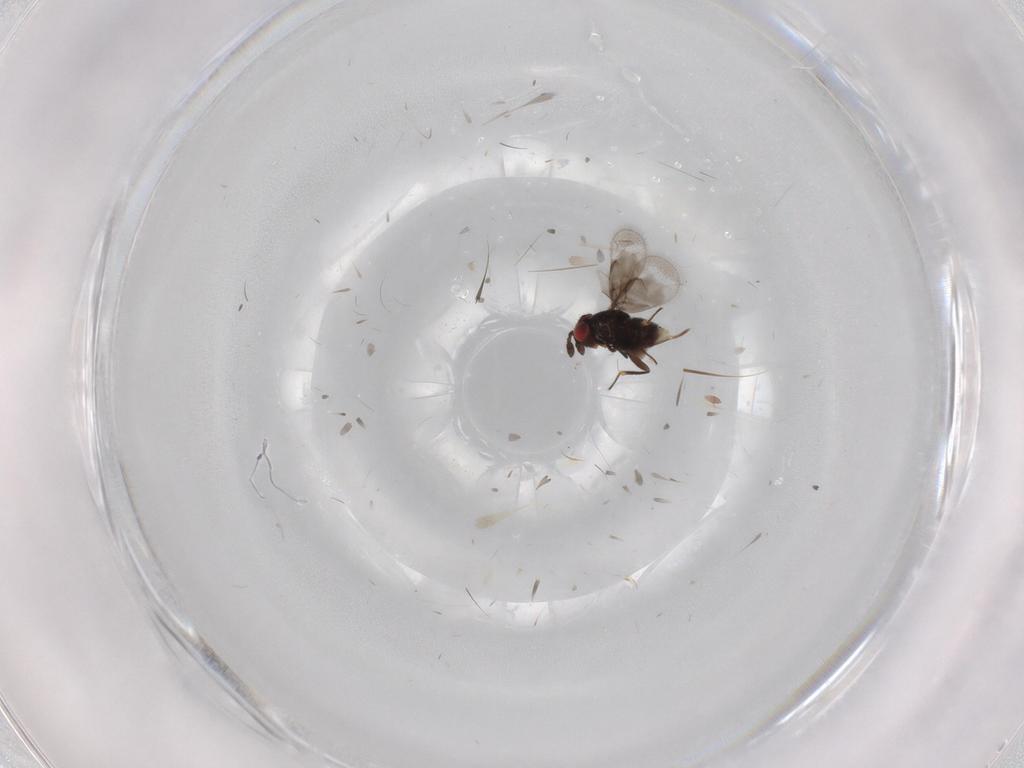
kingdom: Animalia
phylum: Arthropoda
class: Insecta
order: Hymenoptera
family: Eulophidae
